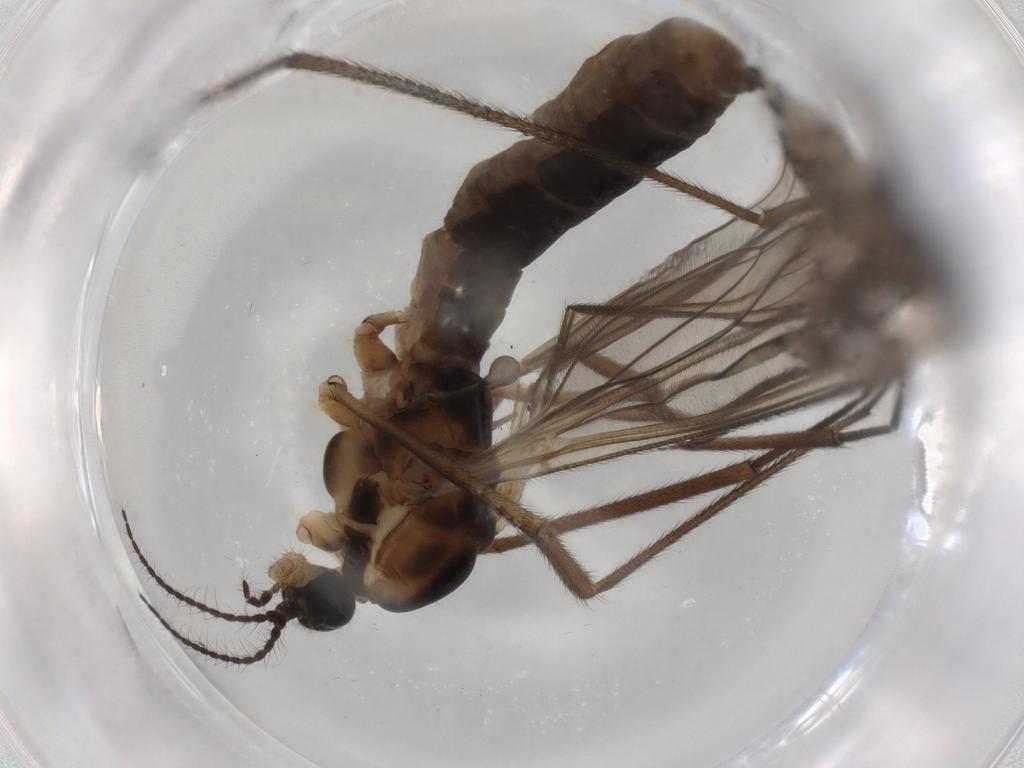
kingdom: Animalia
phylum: Arthropoda
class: Insecta
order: Diptera
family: Limoniidae
